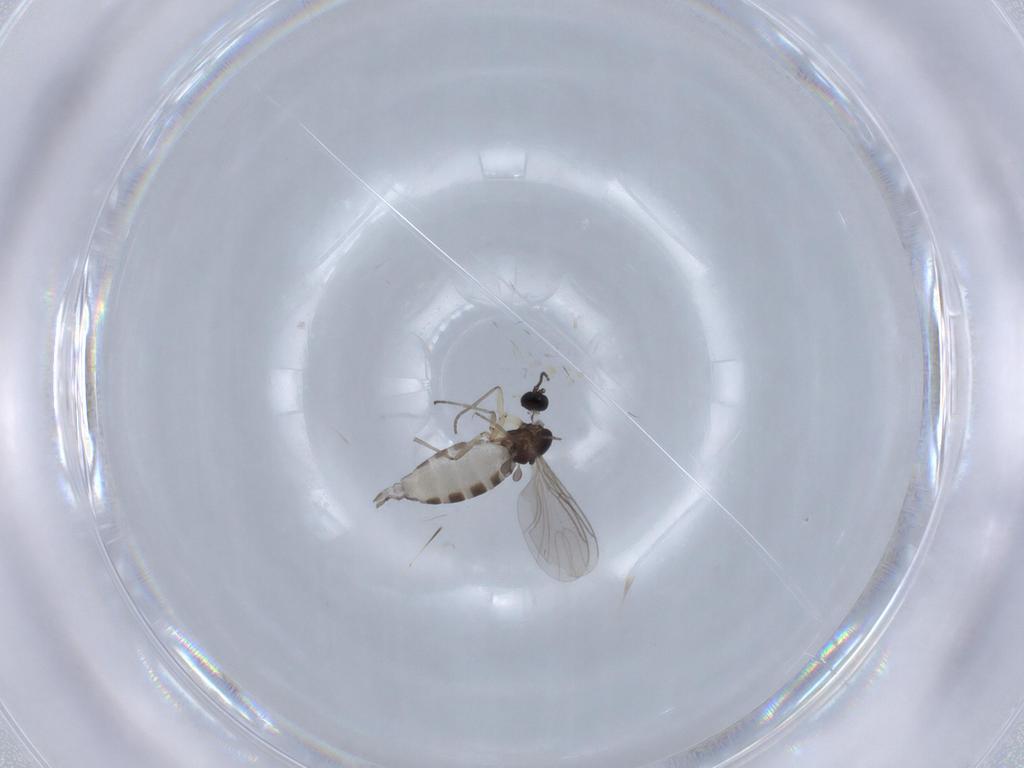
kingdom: Animalia
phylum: Arthropoda
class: Insecta
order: Diptera
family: Sciaridae
